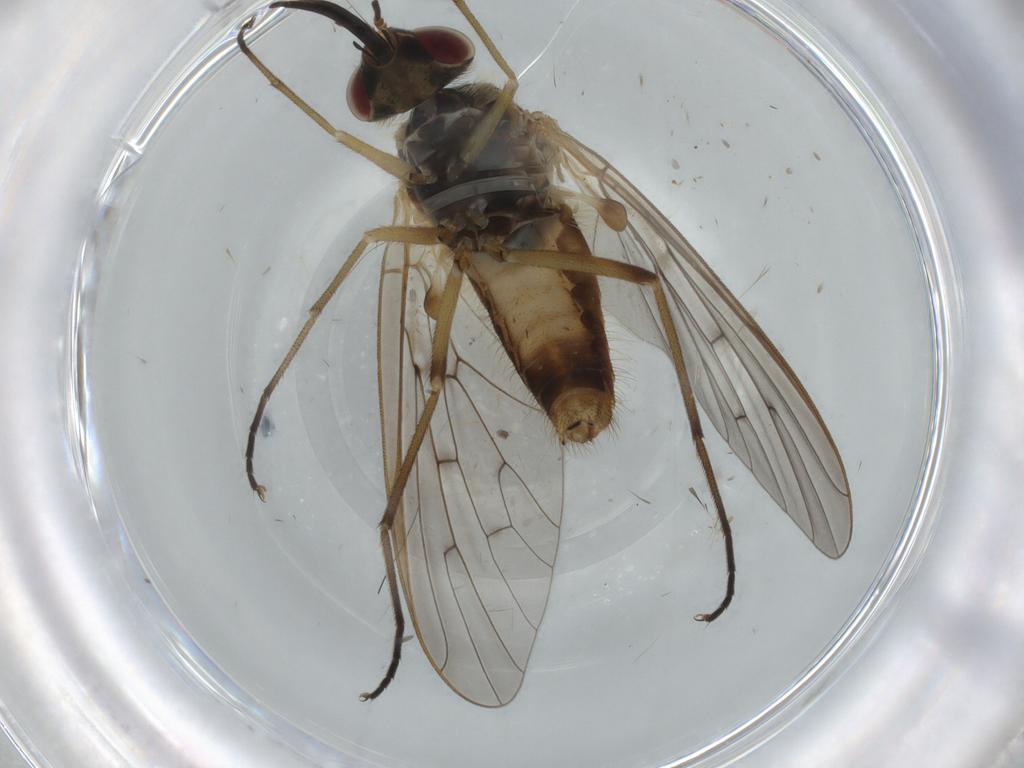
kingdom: Animalia
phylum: Arthropoda
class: Insecta
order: Diptera
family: Bombyliidae
